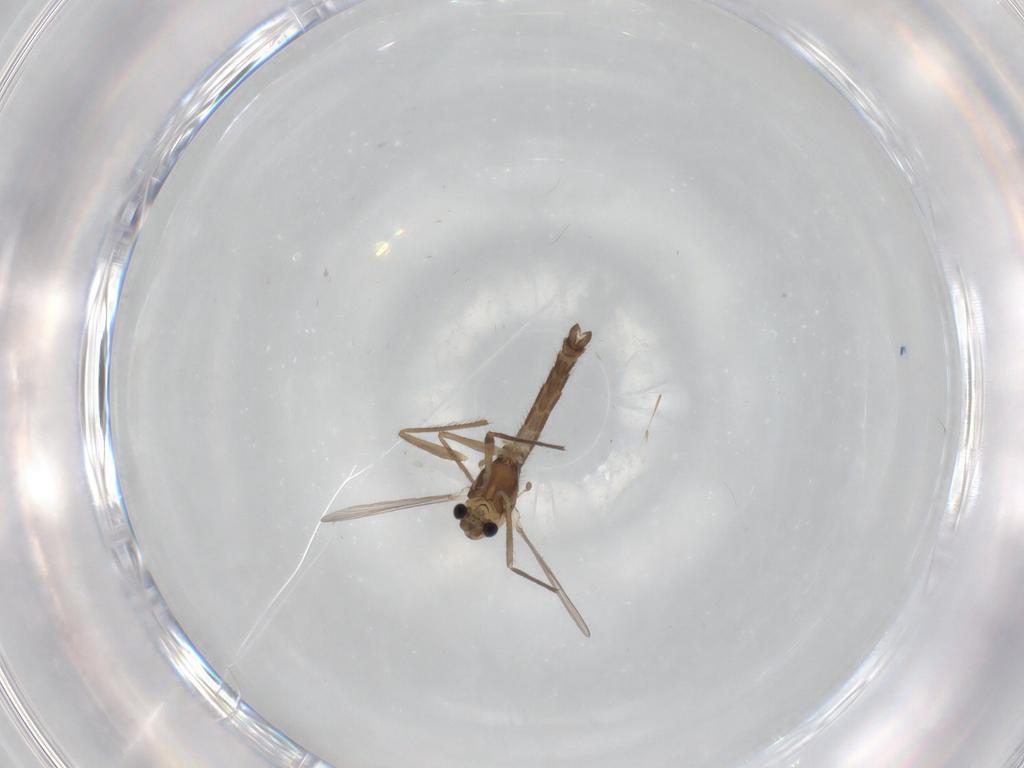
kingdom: Animalia
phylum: Arthropoda
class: Insecta
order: Diptera
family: Chironomidae
